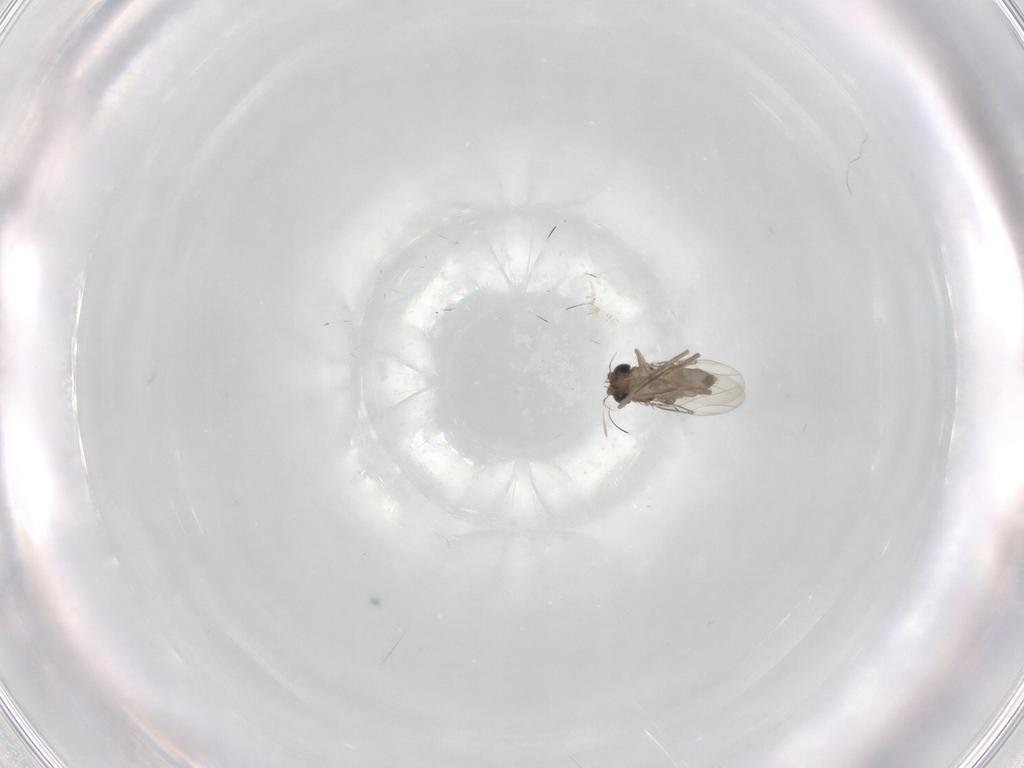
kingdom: Animalia
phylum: Arthropoda
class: Insecta
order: Diptera
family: Phoridae
